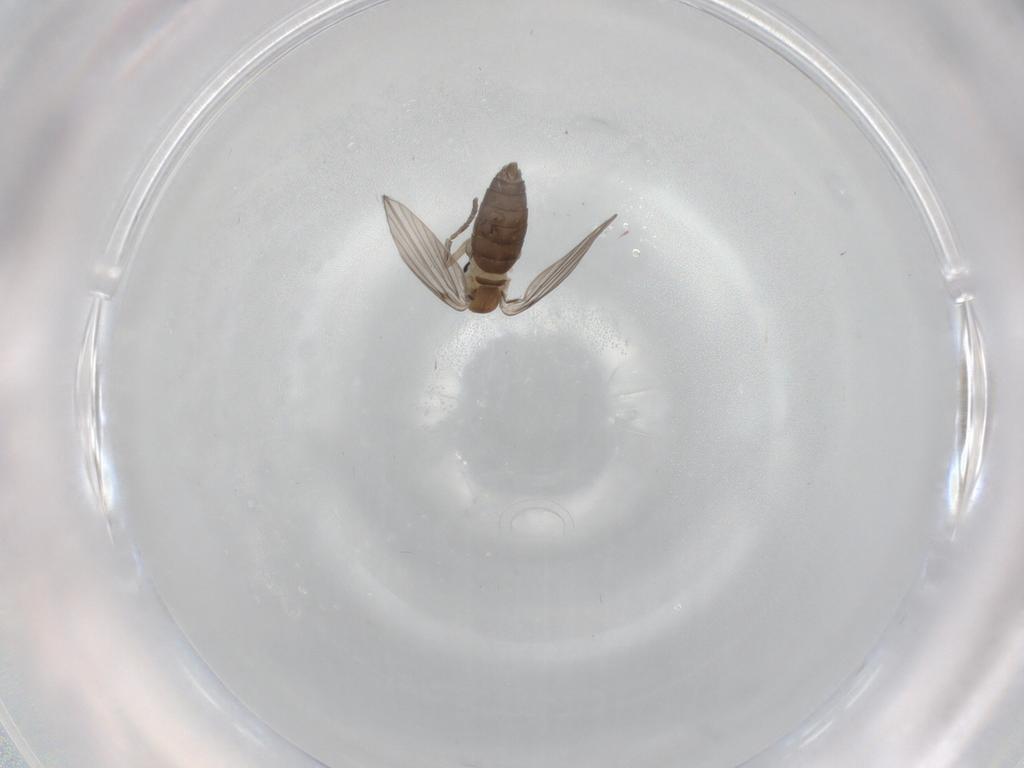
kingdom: Animalia
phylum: Arthropoda
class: Insecta
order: Diptera
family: Psychodidae
